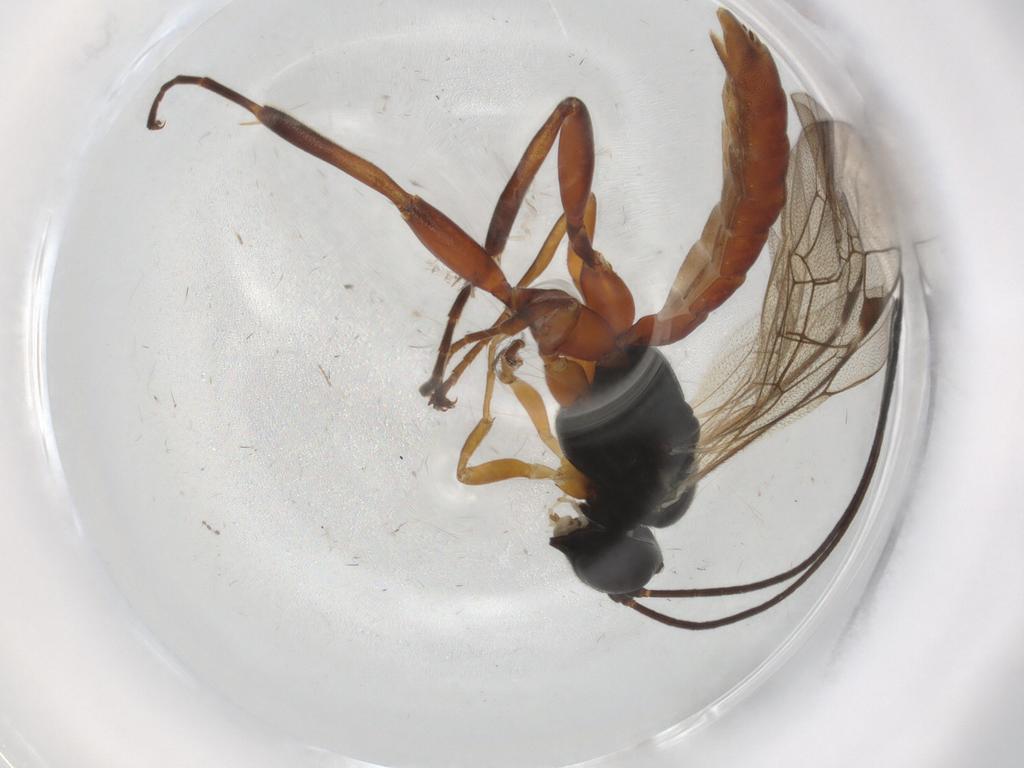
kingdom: Animalia
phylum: Arthropoda
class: Insecta
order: Hymenoptera
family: Ichneumonidae
